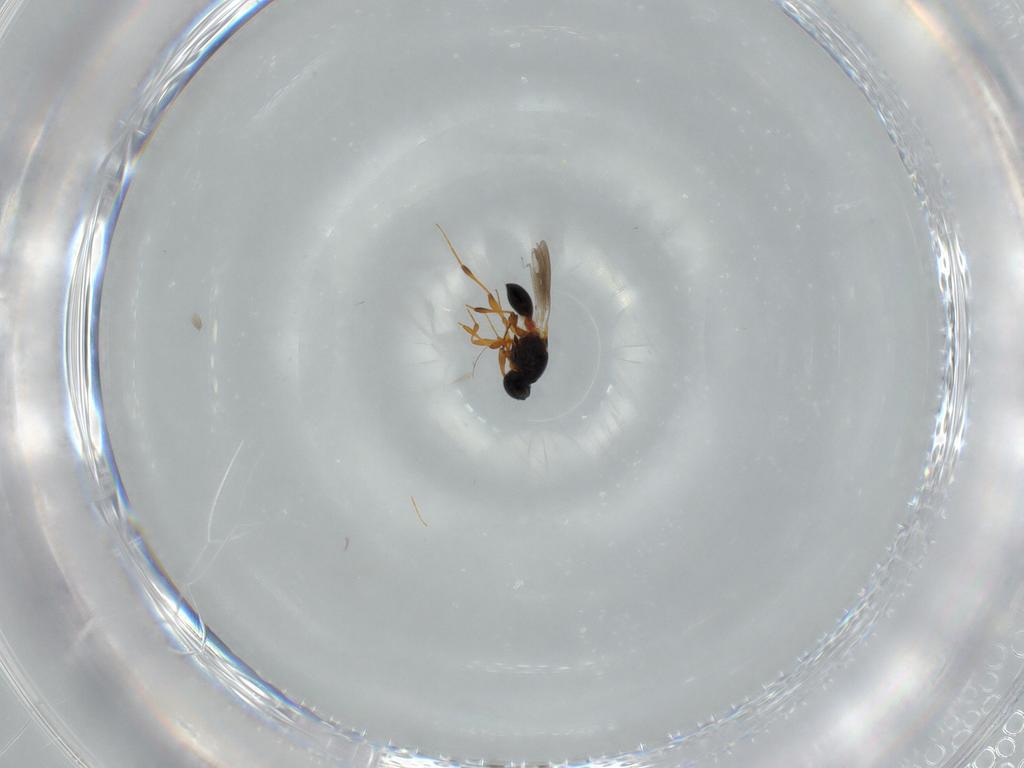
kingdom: Animalia
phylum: Arthropoda
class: Insecta
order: Hymenoptera
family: Platygastridae
